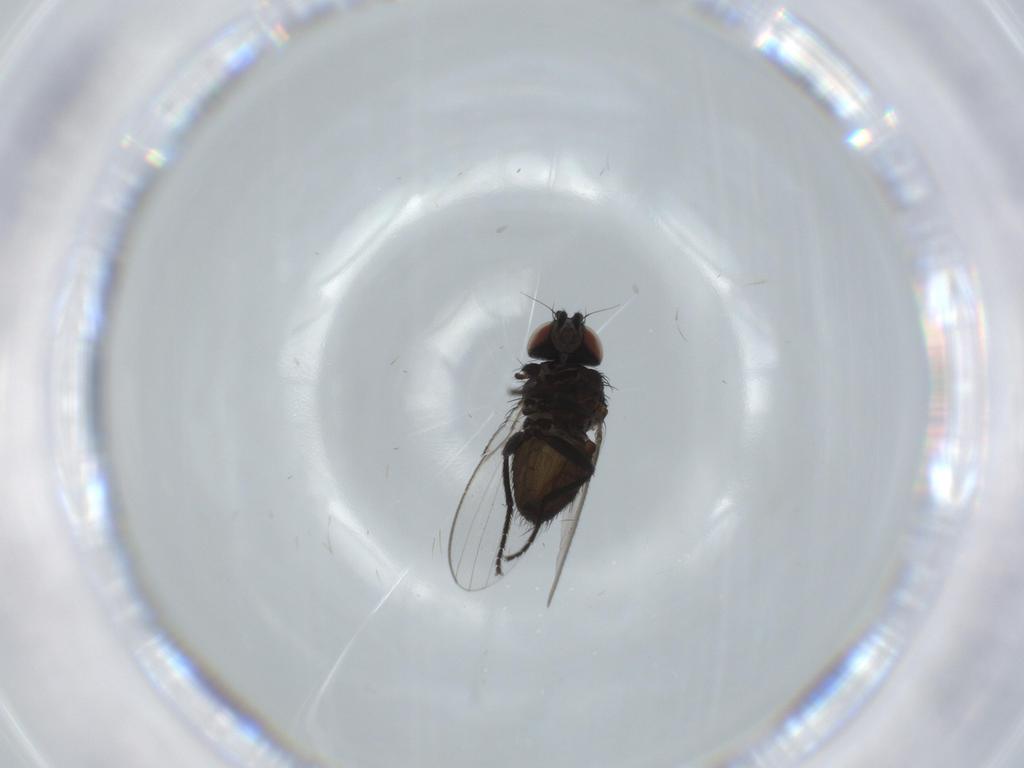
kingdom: Animalia
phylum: Arthropoda
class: Insecta
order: Diptera
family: Mycetophilidae
